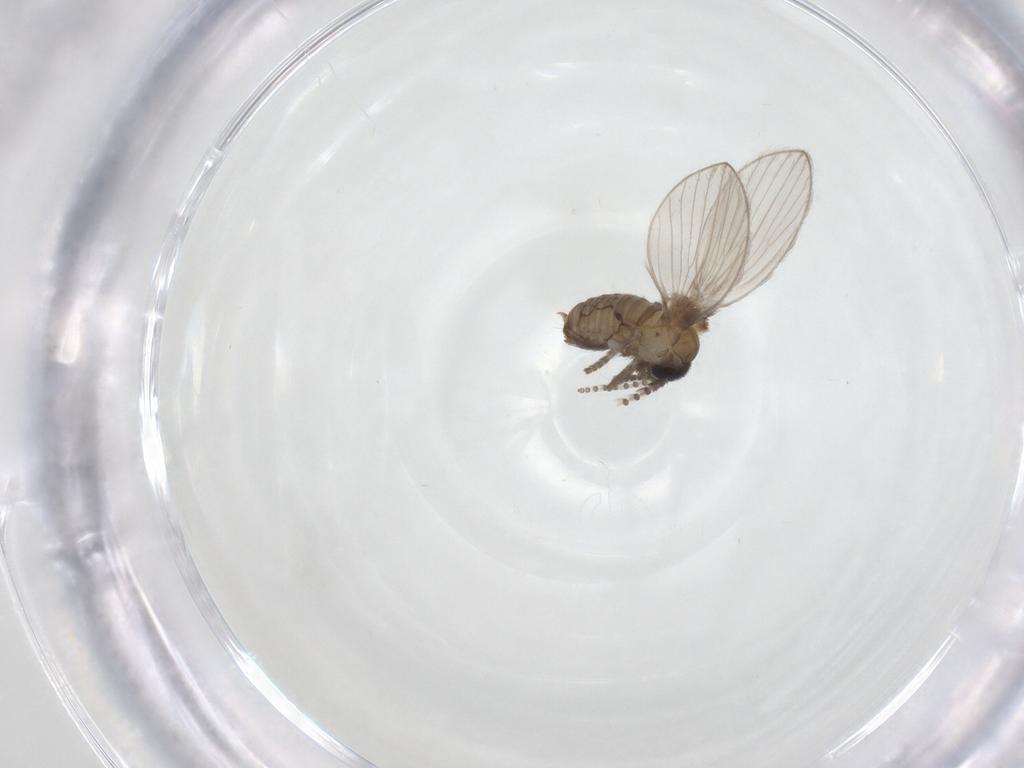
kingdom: Animalia
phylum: Arthropoda
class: Insecta
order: Diptera
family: Psychodidae
